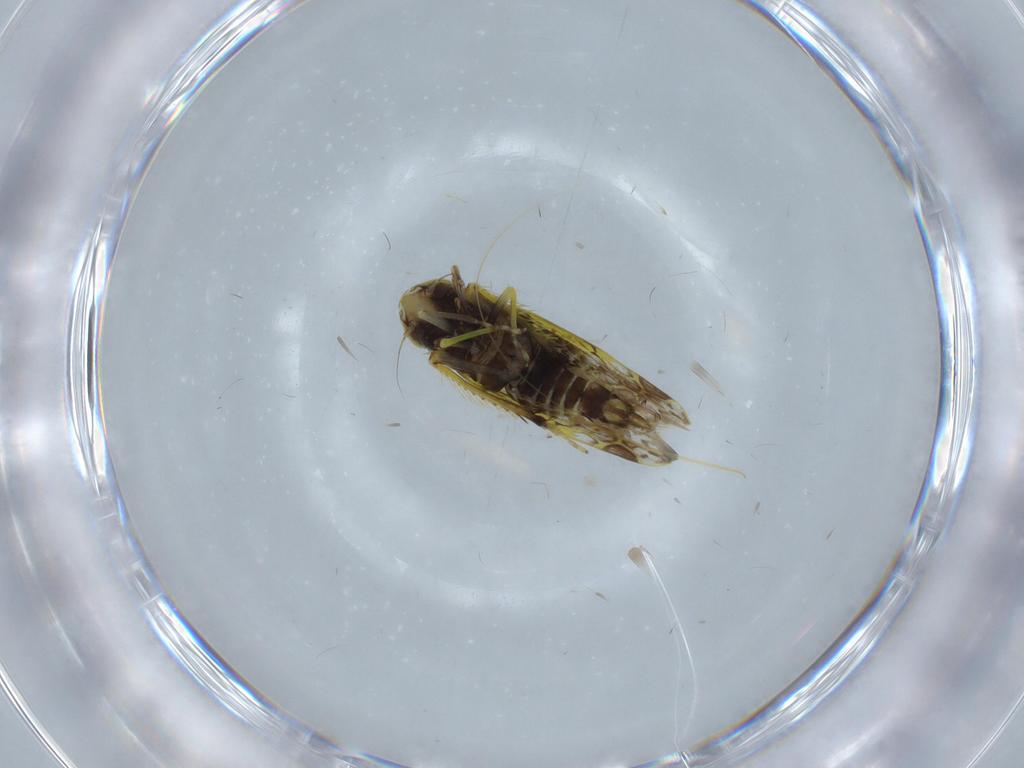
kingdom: Animalia
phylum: Arthropoda
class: Insecta
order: Hemiptera
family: Cicadellidae
